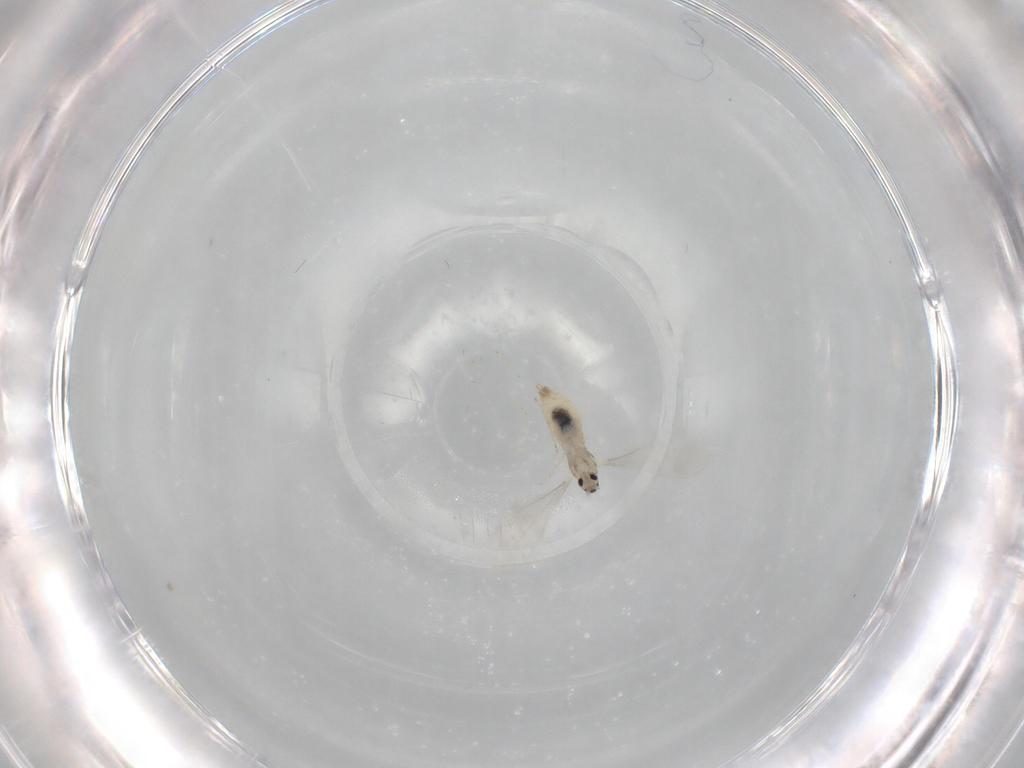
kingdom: Animalia
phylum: Arthropoda
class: Insecta
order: Diptera
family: Cecidomyiidae
